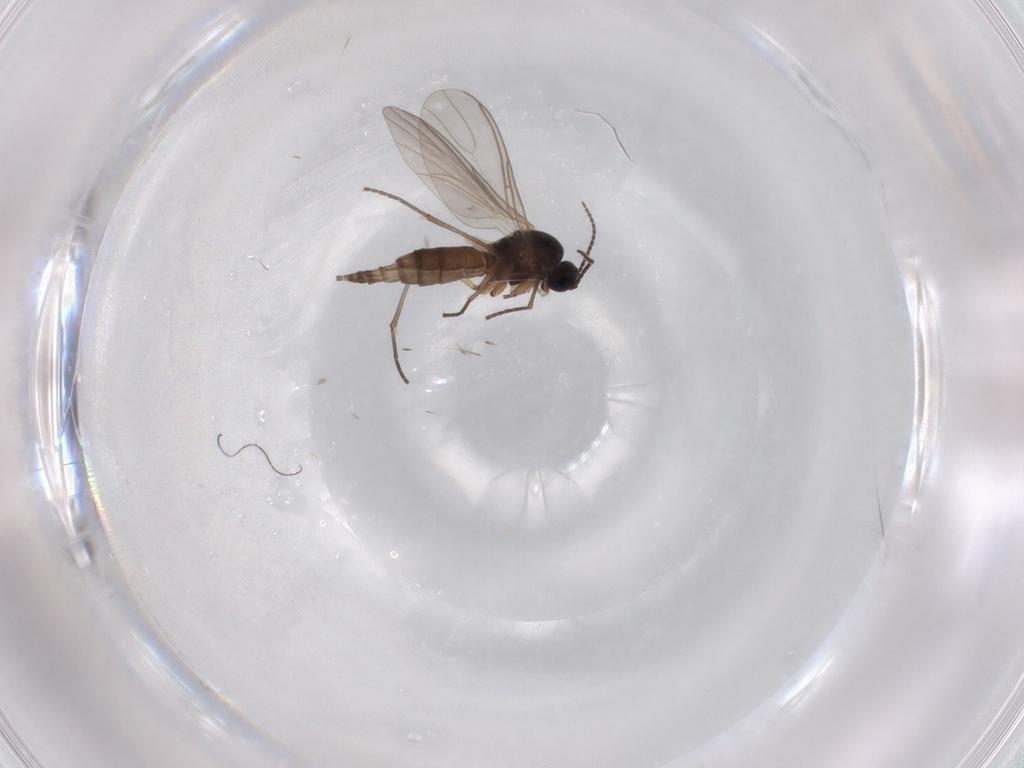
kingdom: Animalia
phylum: Arthropoda
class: Insecta
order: Diptera
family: Sciaridae
